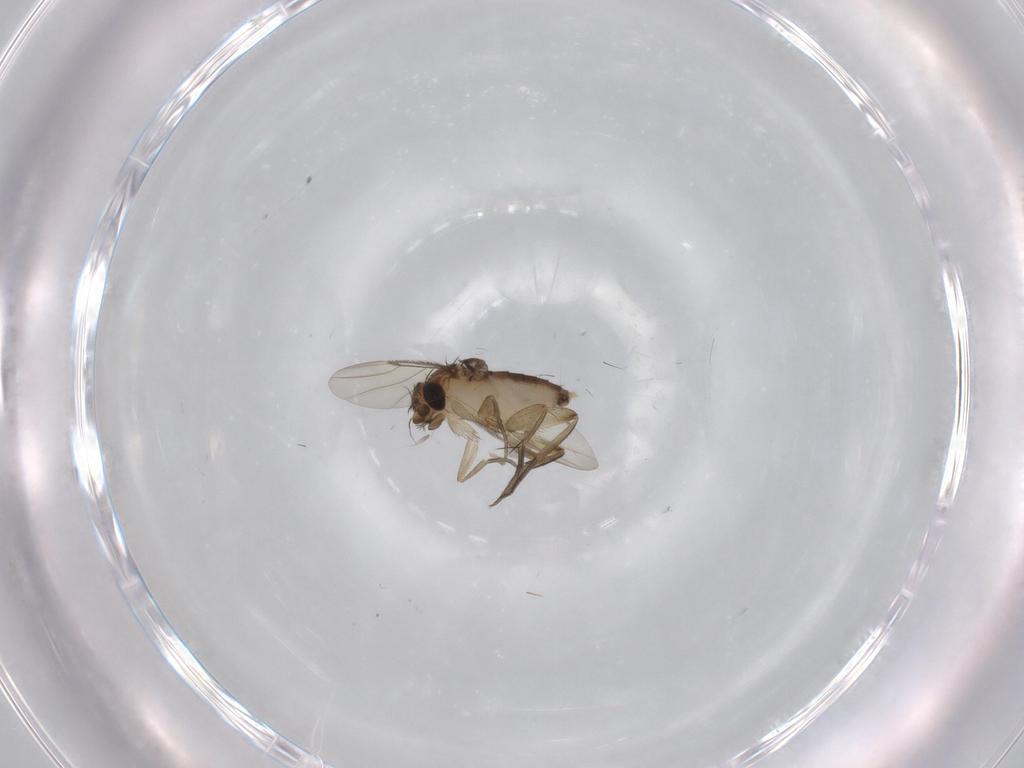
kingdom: Animalia
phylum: Arthropoda
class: Insecta
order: Diptera
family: Phoridae
